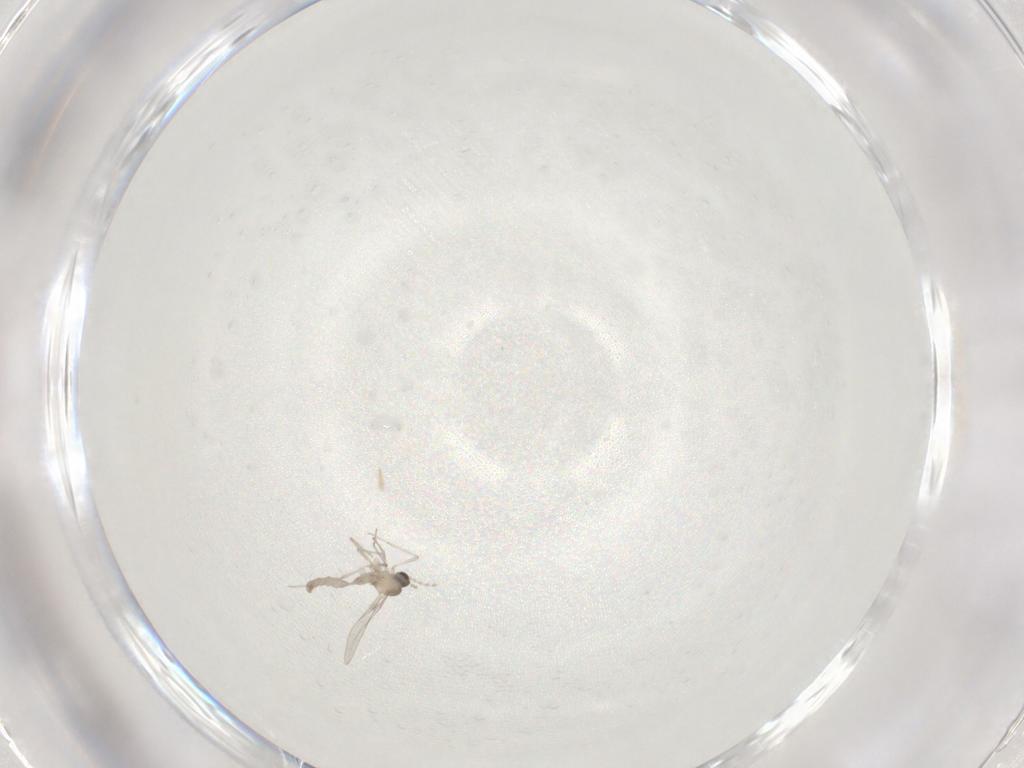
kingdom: Animalia
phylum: Arthropoda
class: Insecta
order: Diptera
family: Cecidomyiidae
